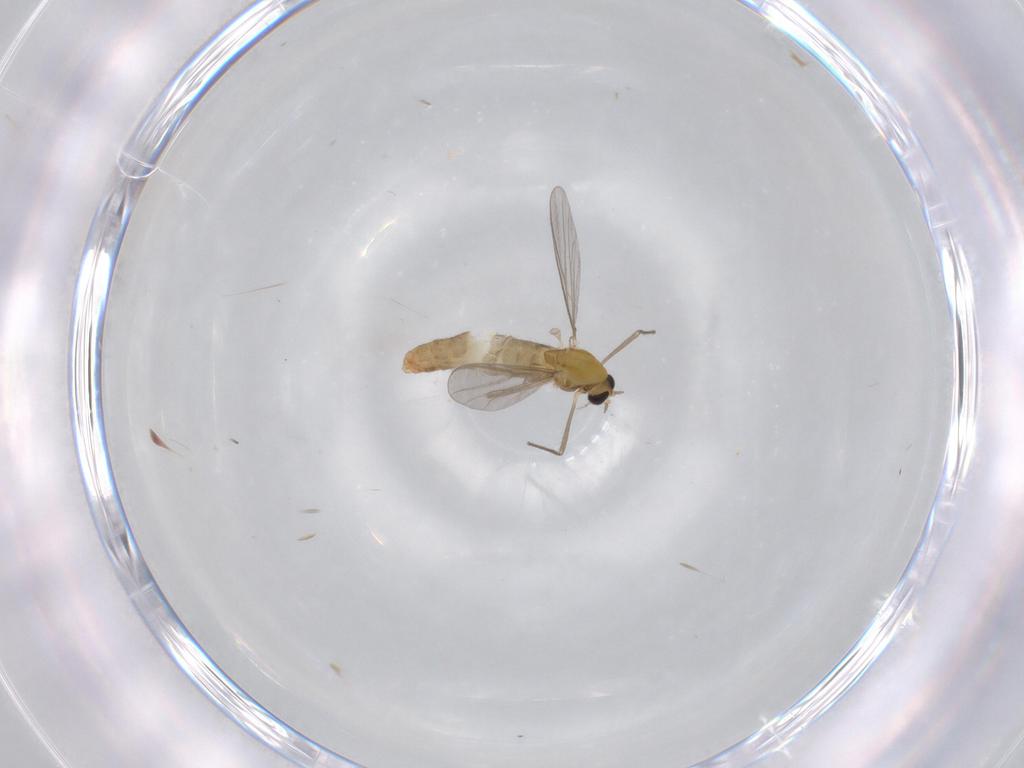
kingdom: Animalia
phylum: Arthropoda
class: Insecta
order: Diptera
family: Chironomidae
